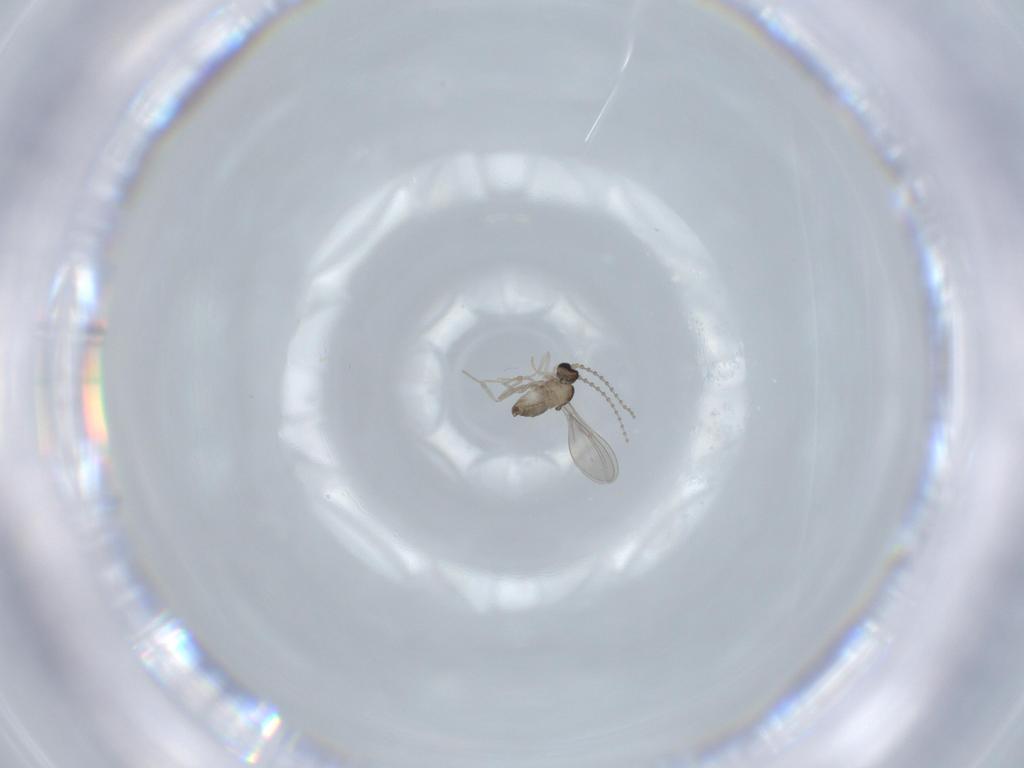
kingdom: Animalia
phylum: Arthropoda
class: Insecta
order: Diptera
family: Cecidomyiidae
